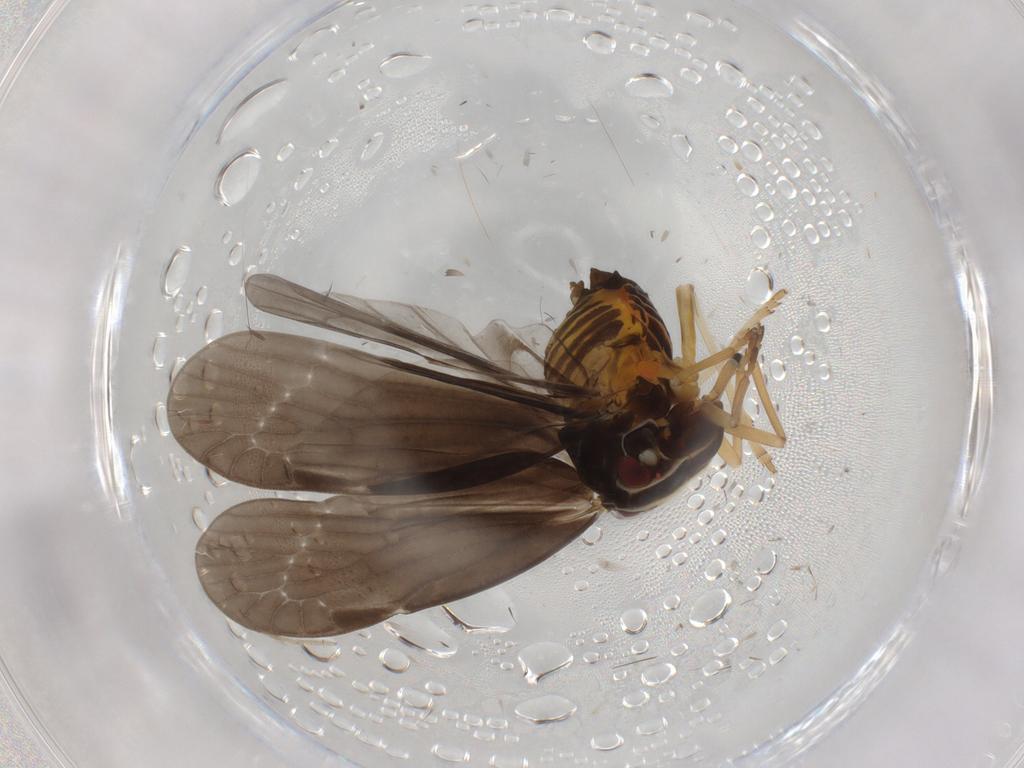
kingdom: Animalia
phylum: Arthropoda
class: Insecta
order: Hemiptera
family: Derbidae
